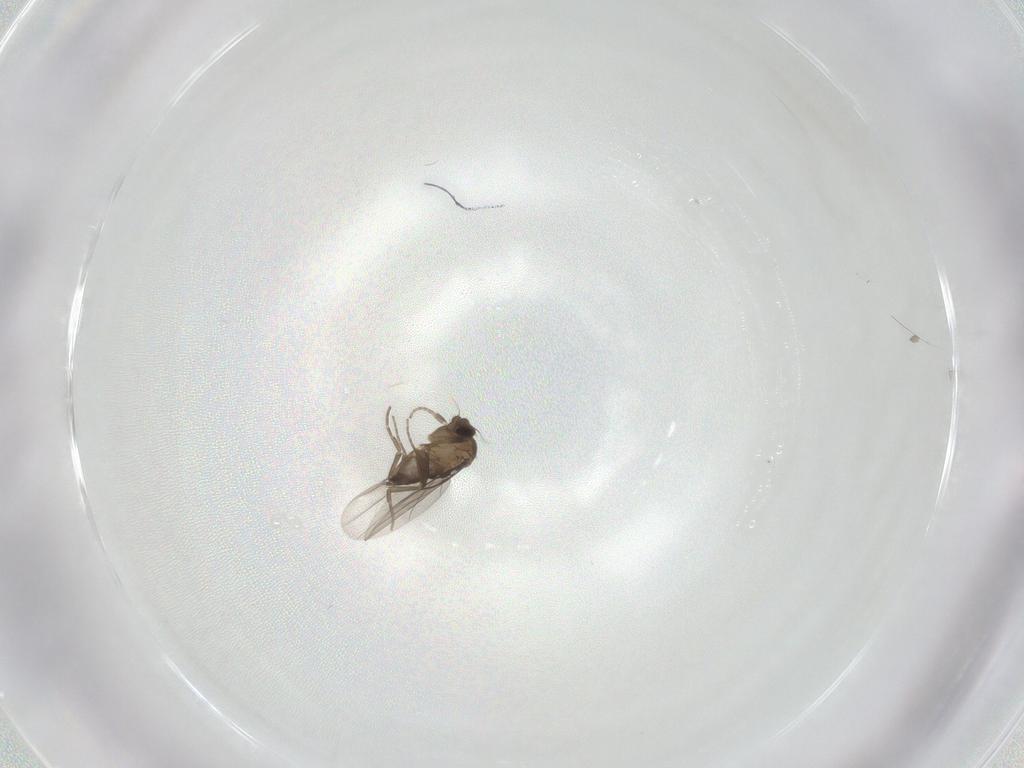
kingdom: Animalia
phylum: Arthropoda
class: Insecta
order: Diptera
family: Phoridae
